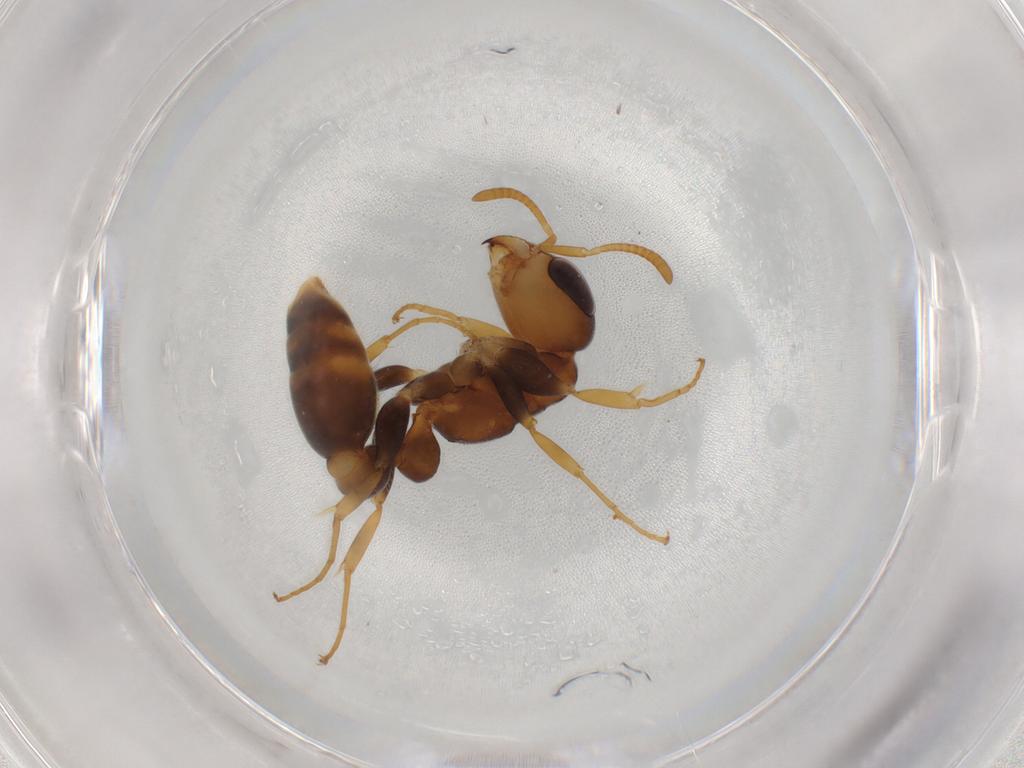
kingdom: Animalia
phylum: Arthropoda
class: Insecta
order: Hymenoptera
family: Formicidae
